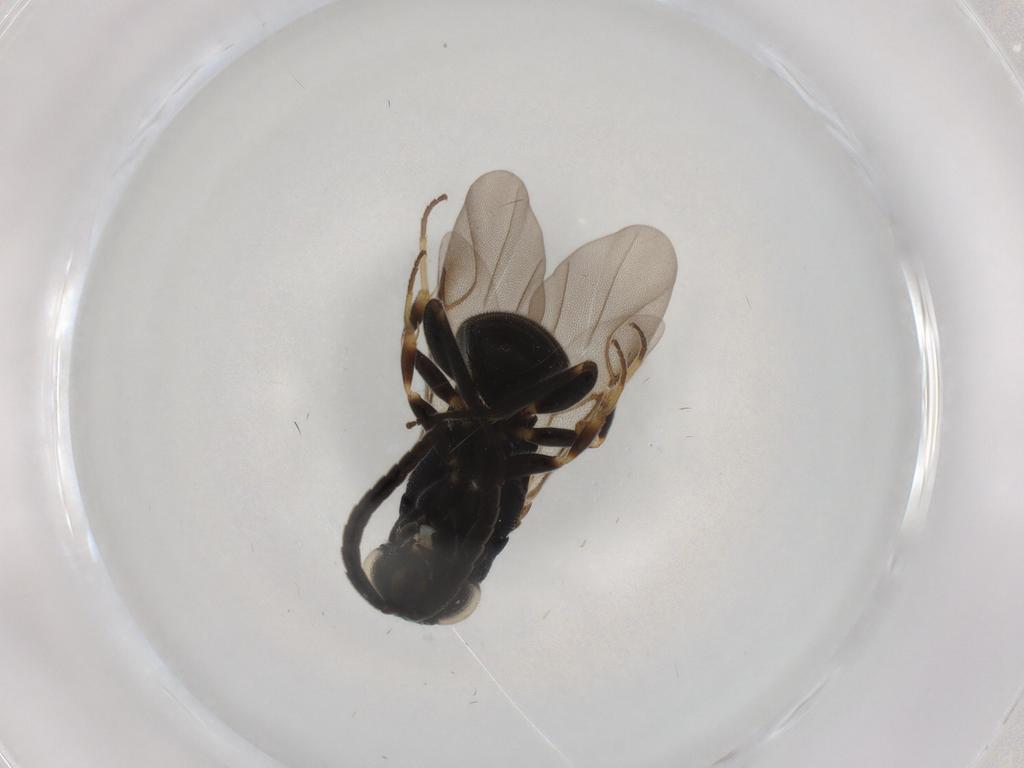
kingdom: Animalia
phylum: Arthropoda
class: Insecta
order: Hymenoptera
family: Chrysididae
